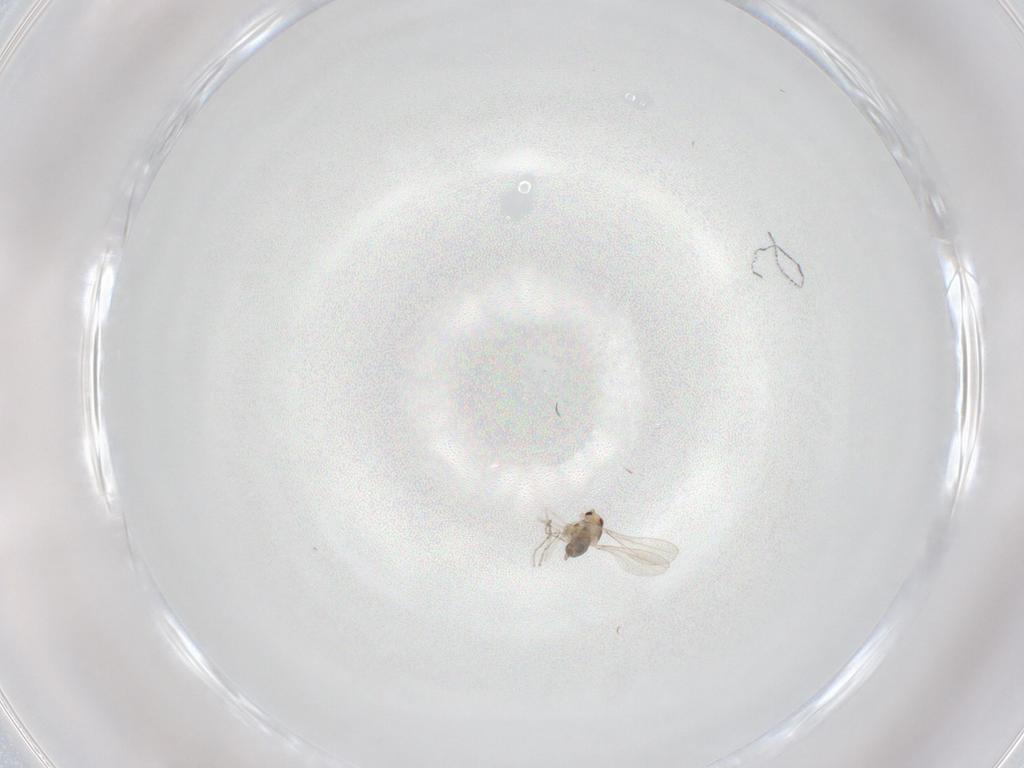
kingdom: Animalia
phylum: Arthropoda
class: Insecta
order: Diptera
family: Cecidomyiidae
